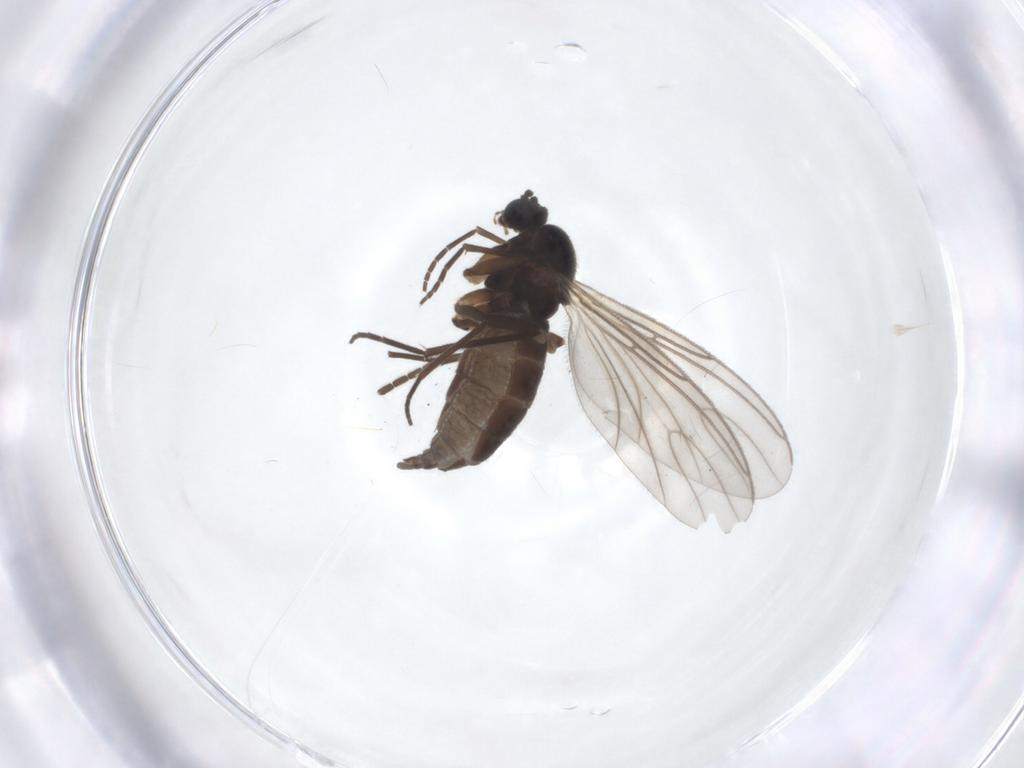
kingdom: Animalia
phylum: Arthropoda
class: Insecta
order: Diptera
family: Sciaridae
